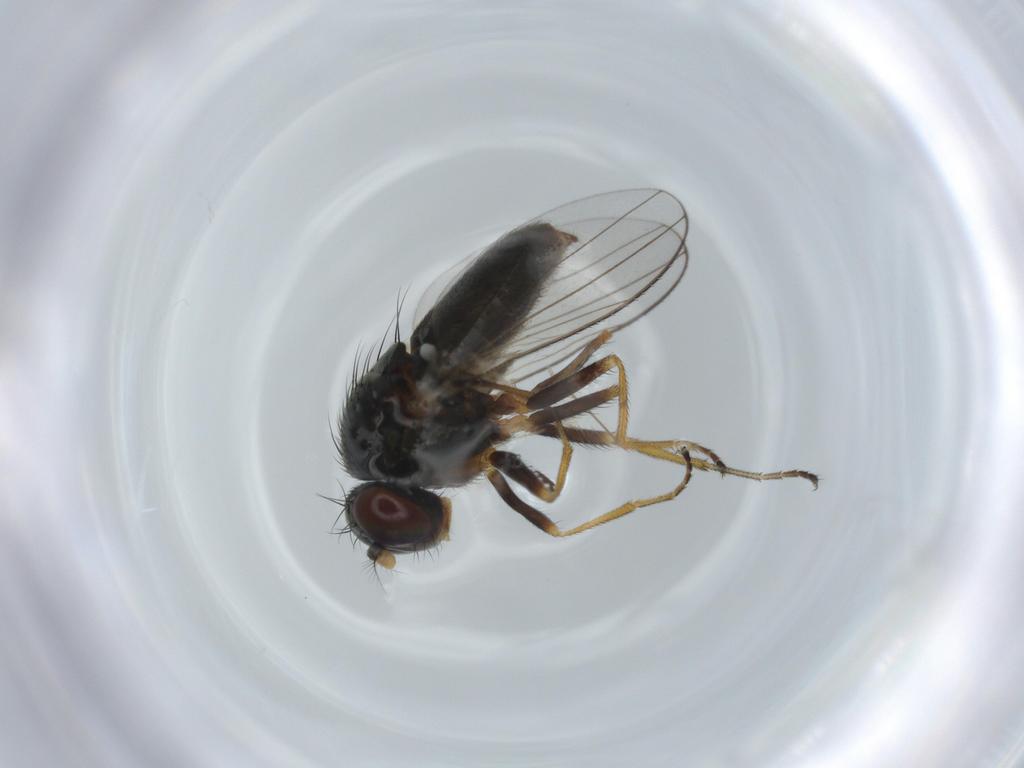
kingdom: Animalia
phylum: Arthropoda
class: Insecta
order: Diptera
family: Ephydridae
